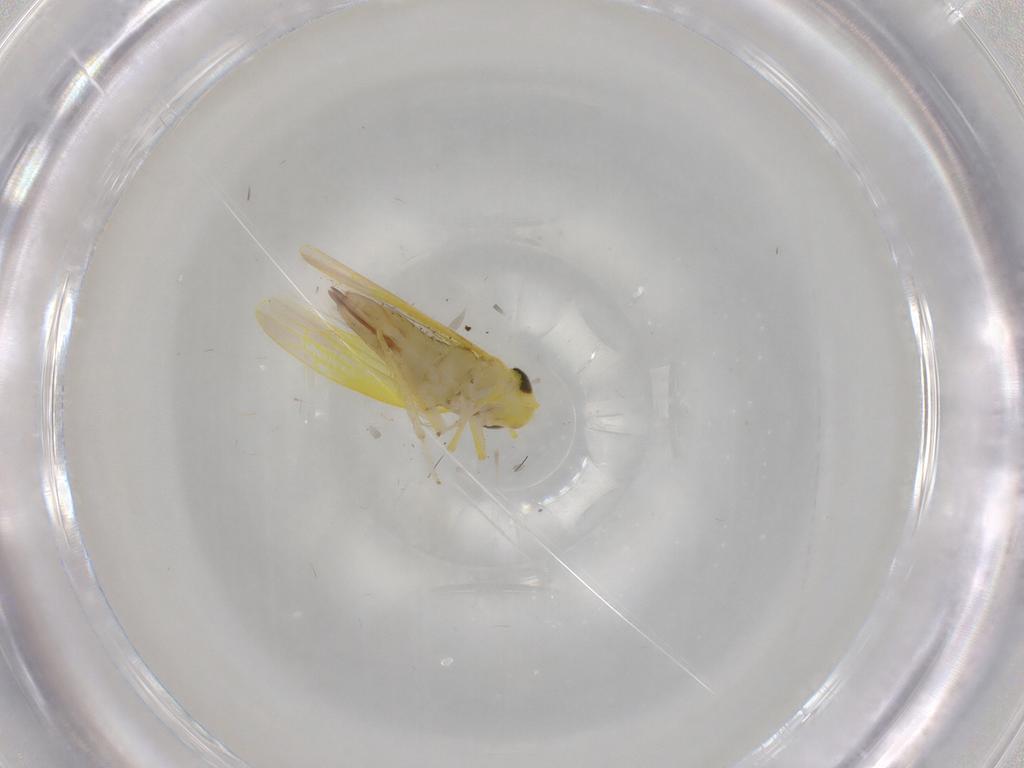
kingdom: Animalia
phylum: Arthropoda
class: Insecta
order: Hemiptera
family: Cicadellidae
